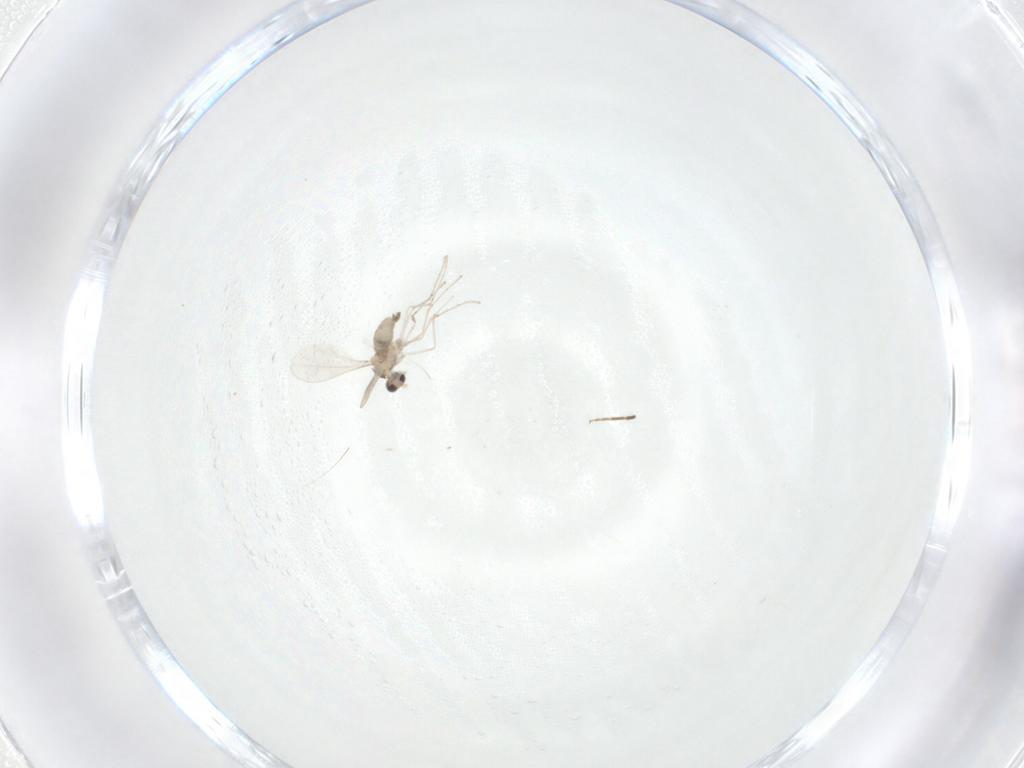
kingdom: Animalia
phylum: Arthropoda
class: Insecta
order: Diptera
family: Cecidomyiidae
